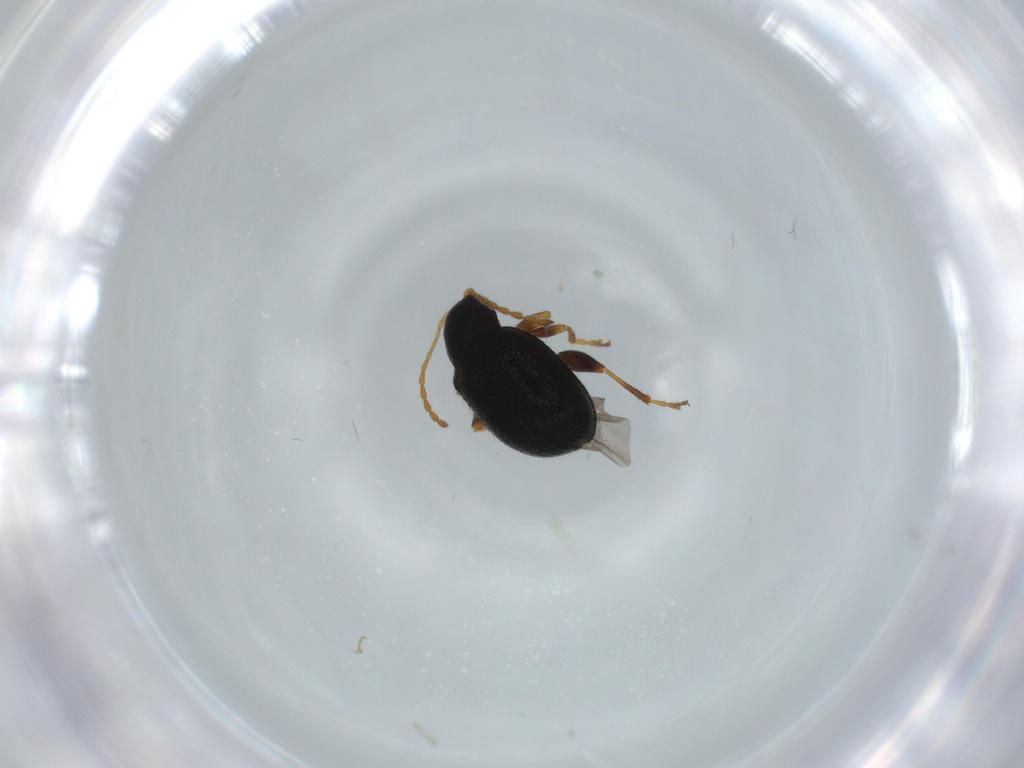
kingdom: Animalia
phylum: Arthropoda
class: Insecta
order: Coleoptera
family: Chrysomelidae
